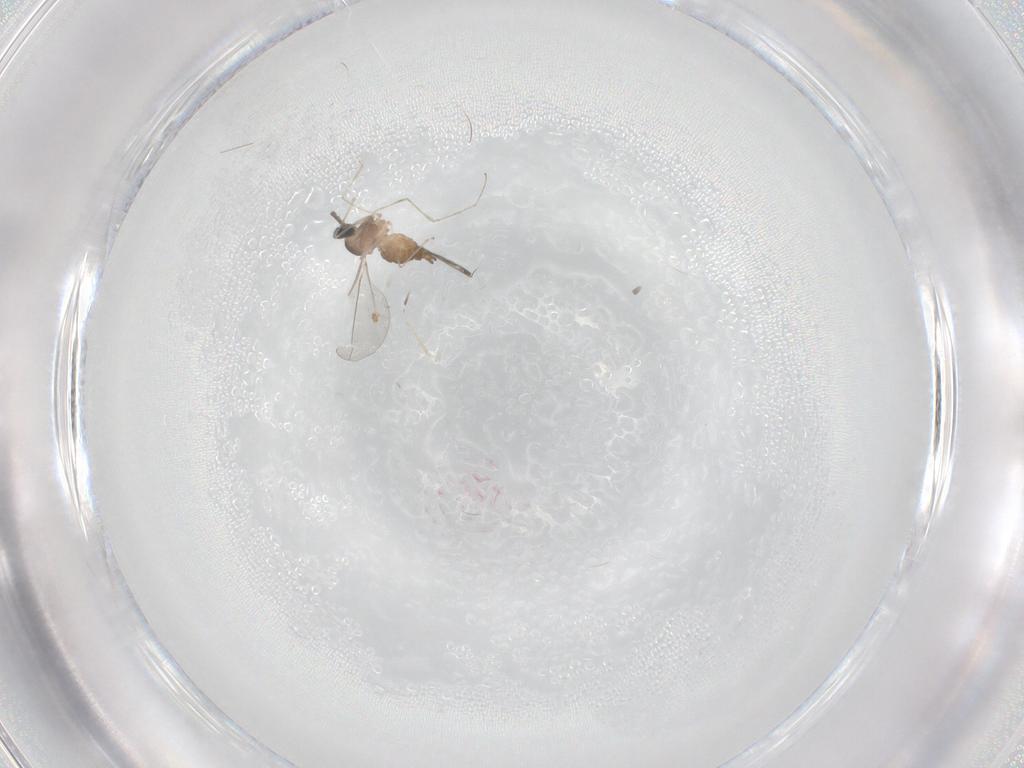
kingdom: Animalia
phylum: Arthropoda
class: Insecta
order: Diptera
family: Cecidomyiidae
